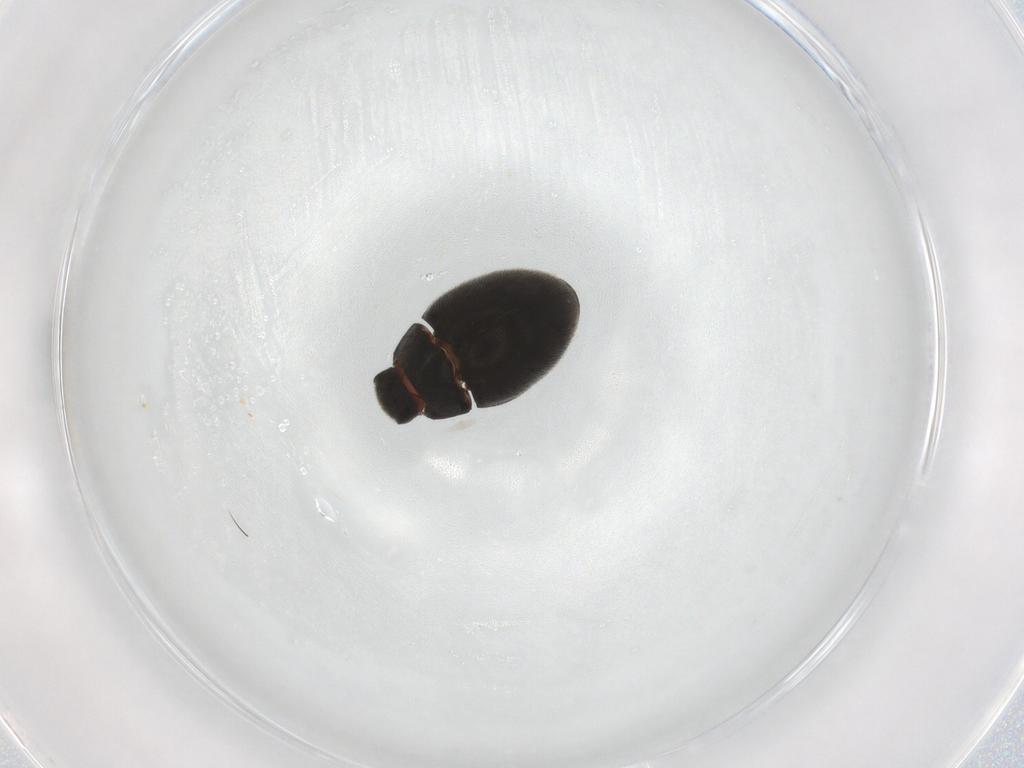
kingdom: Animalia
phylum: Arthropoda
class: Insecta
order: Coleoptera
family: Limnichidae
